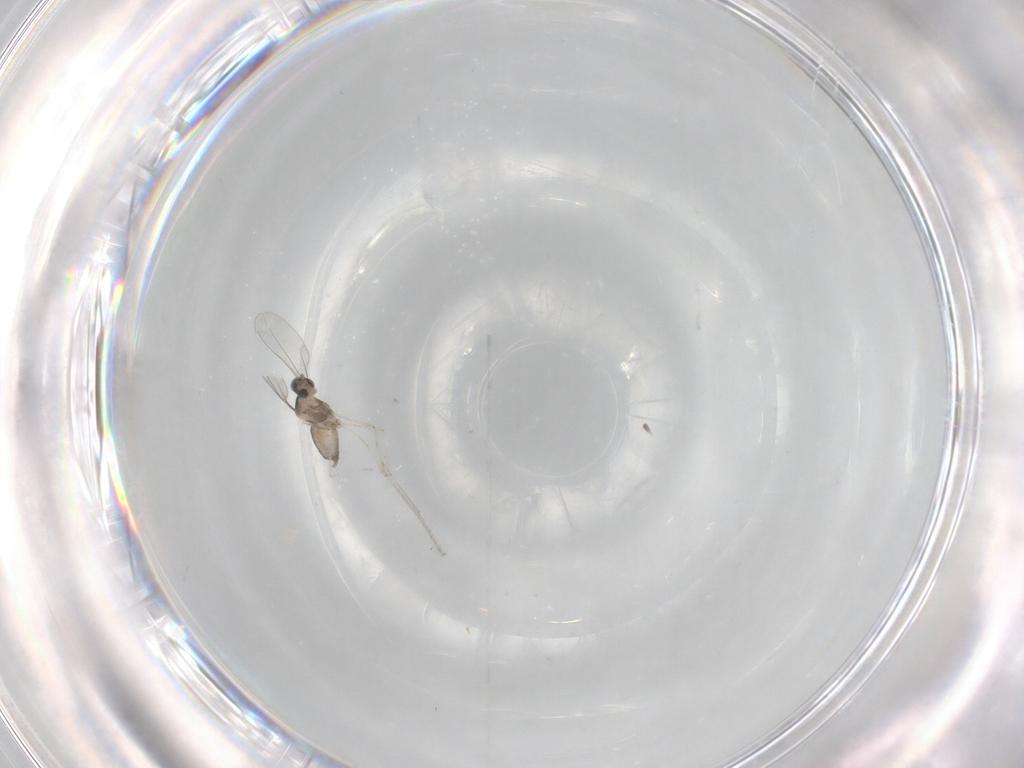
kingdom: Animalia
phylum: Arthropoda
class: Insecta
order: Diptera
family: Cecidomyiidae
